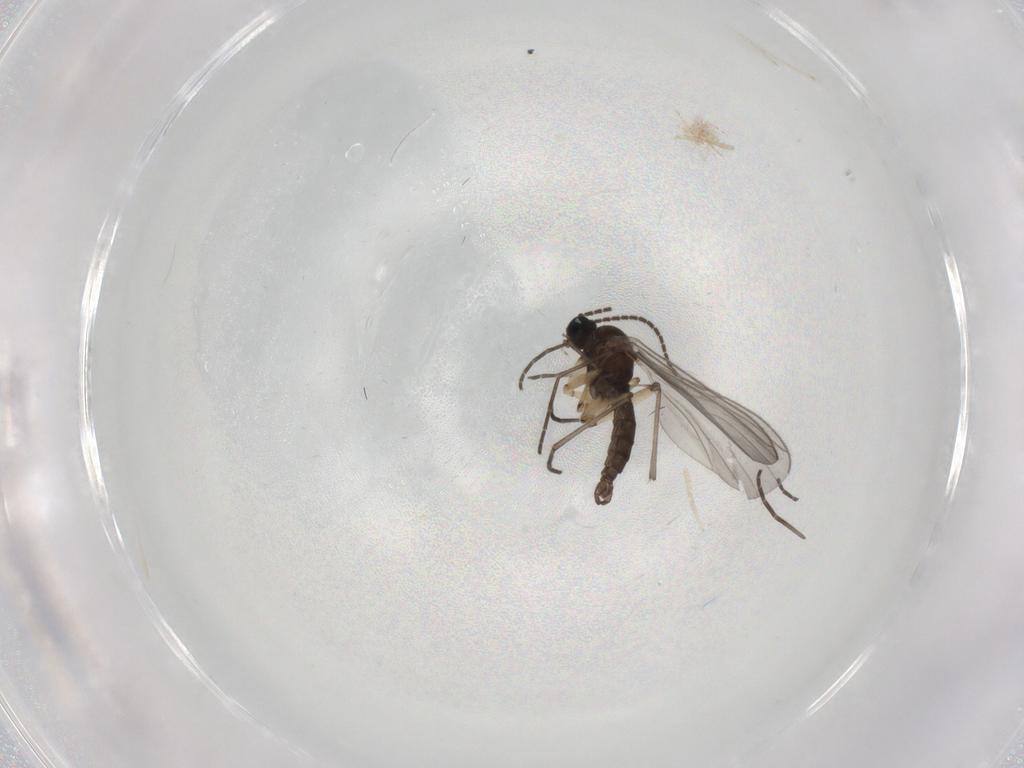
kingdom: Animalia
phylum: Arthropoda
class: Insecta
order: Diptera
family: Sciaridae
